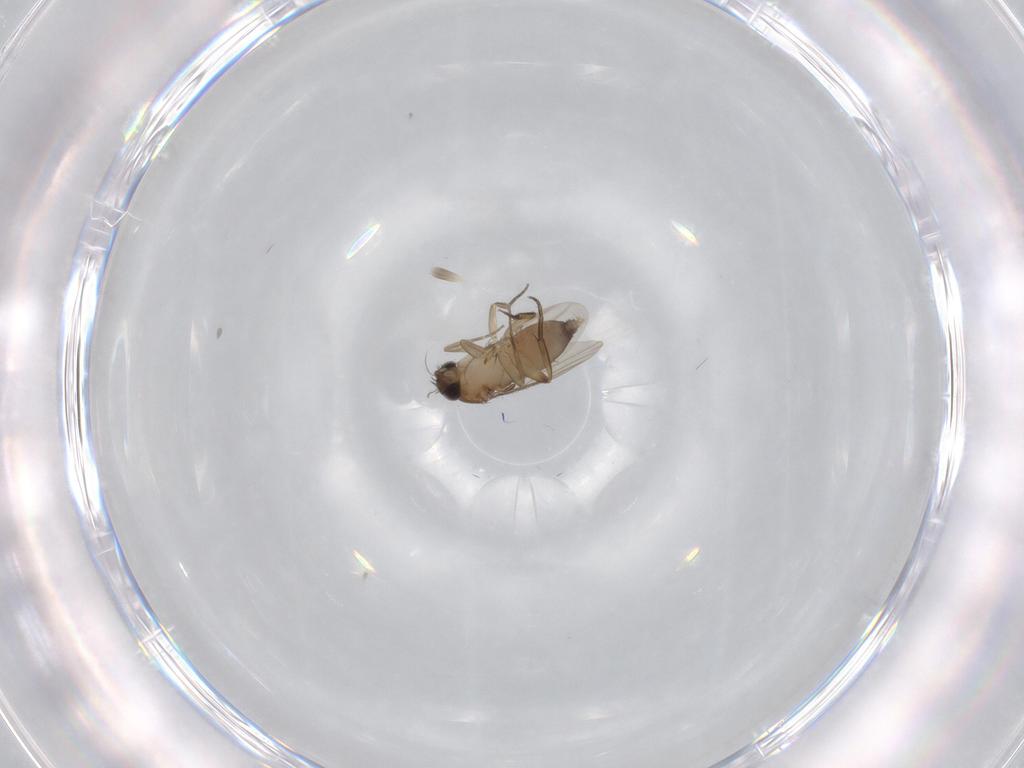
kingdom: Animalia
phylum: Arthropoda
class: Insecta
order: Diptera
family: Phoridae
